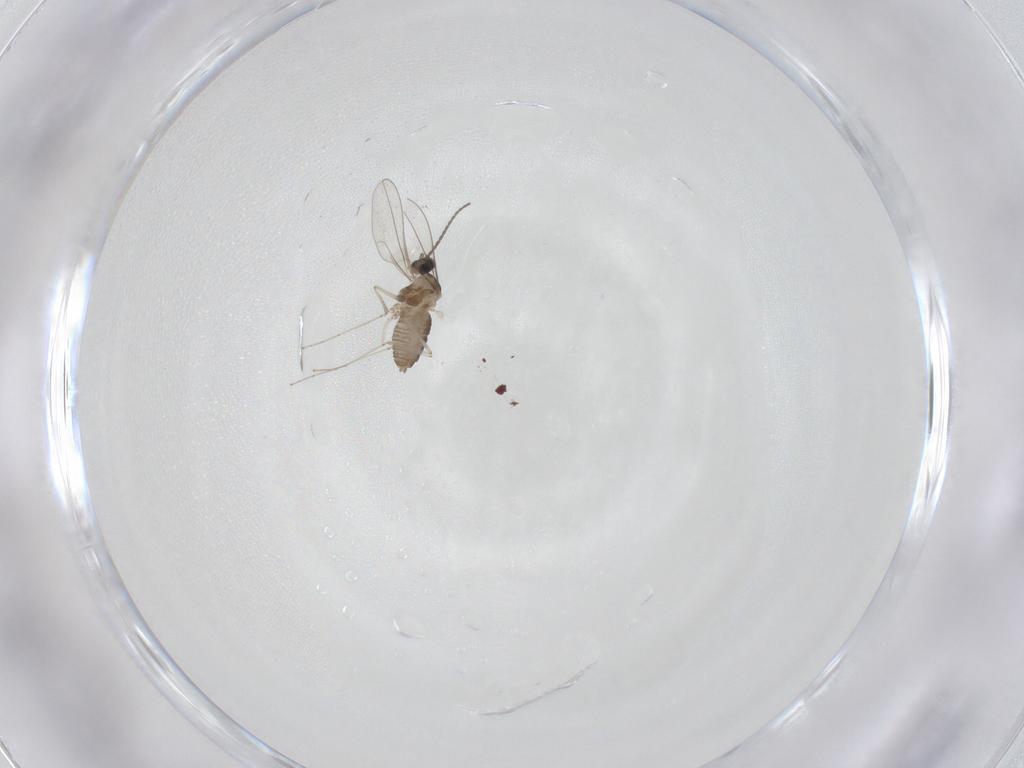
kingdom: Animalia
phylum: Arthropoda
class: Insecta
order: Diptera
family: Cecidomyiidae
